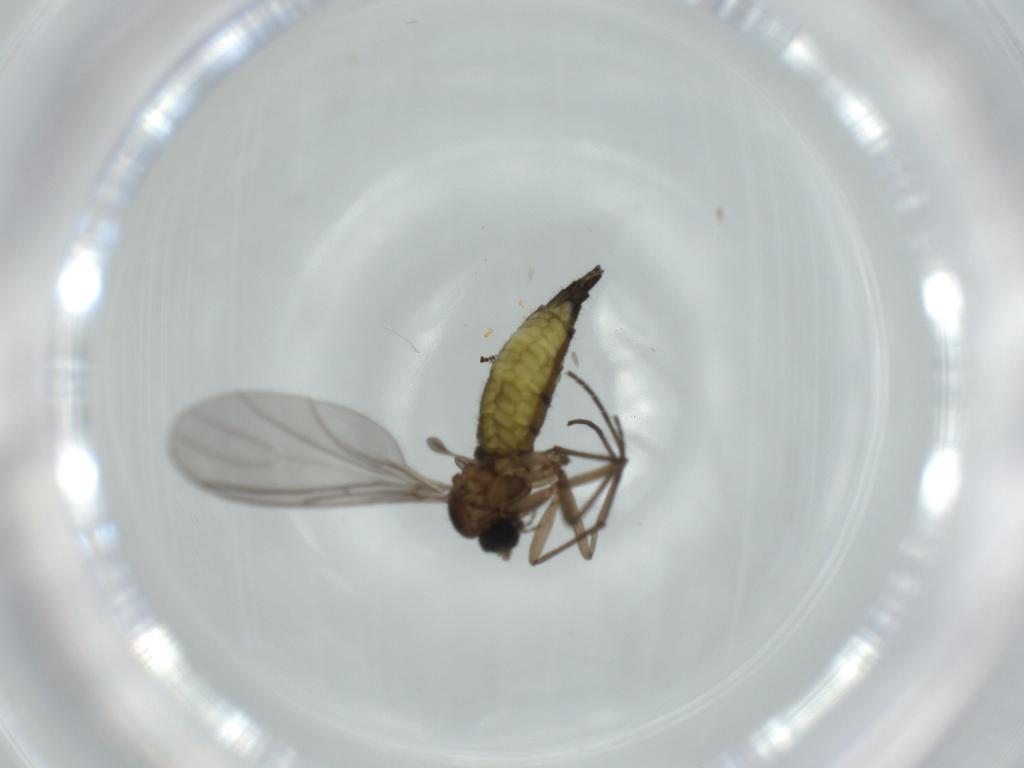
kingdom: Animalia
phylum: Arthropoda
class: Insecta
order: Diptera
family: Sciaridae
